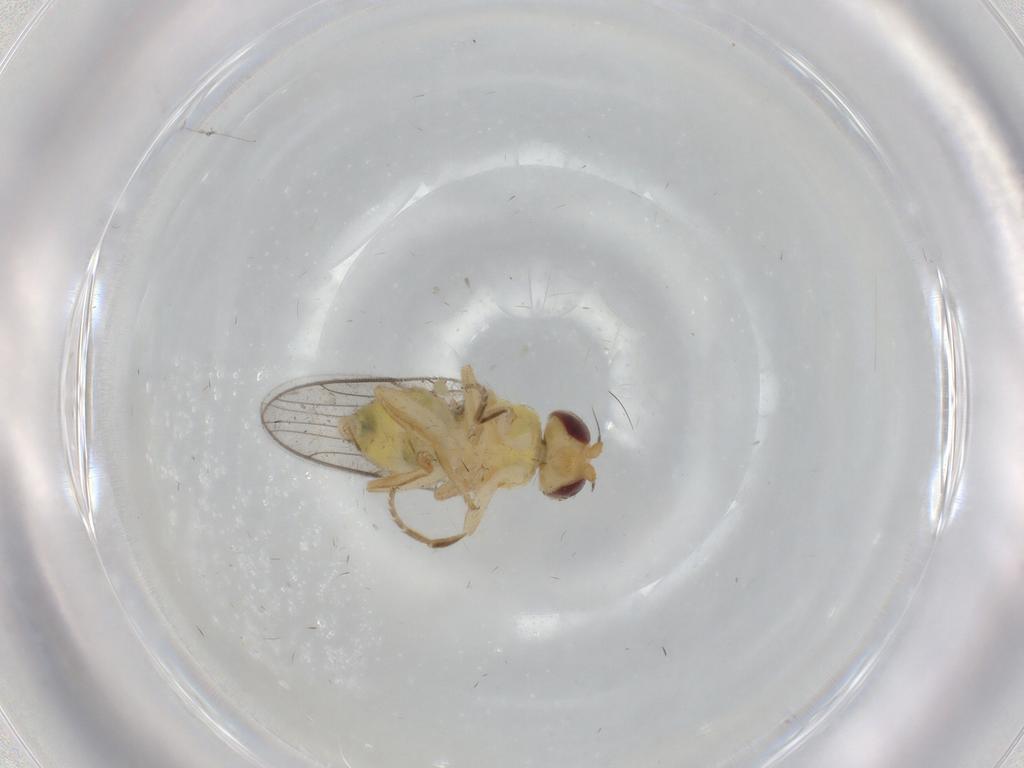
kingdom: Animalia
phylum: Arthropoda
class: Insecta
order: Diptera
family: Chloropidae
